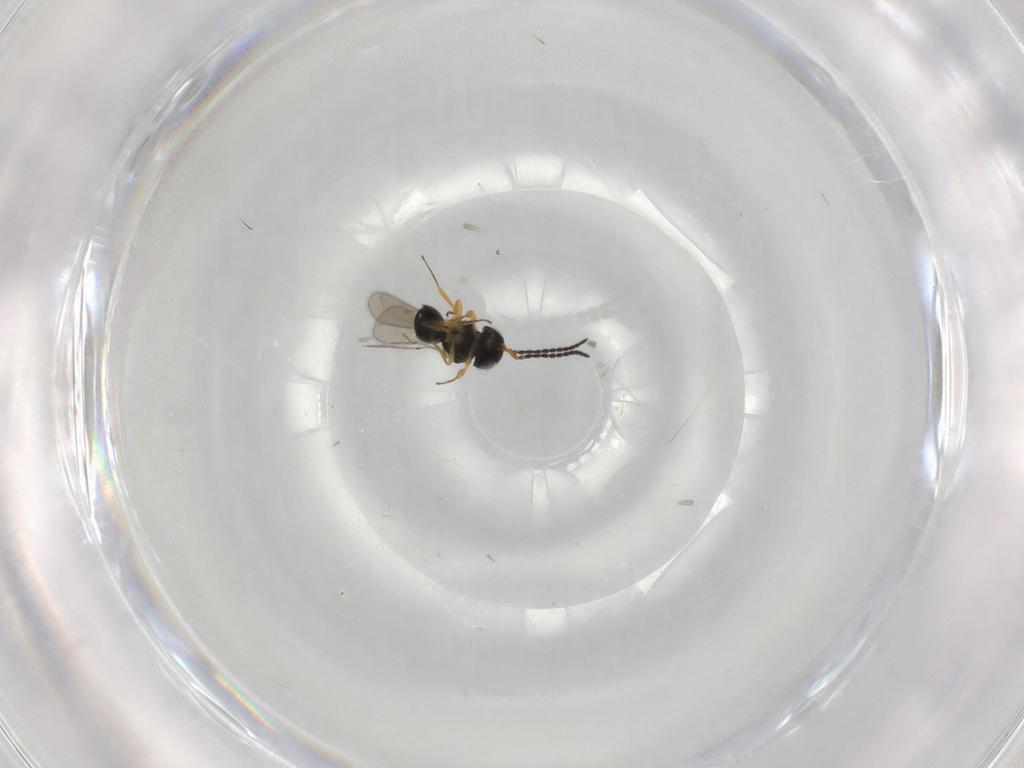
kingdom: Animalia
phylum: Arthropoda
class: Insecta
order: Hymenoptera
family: Scelionidae
